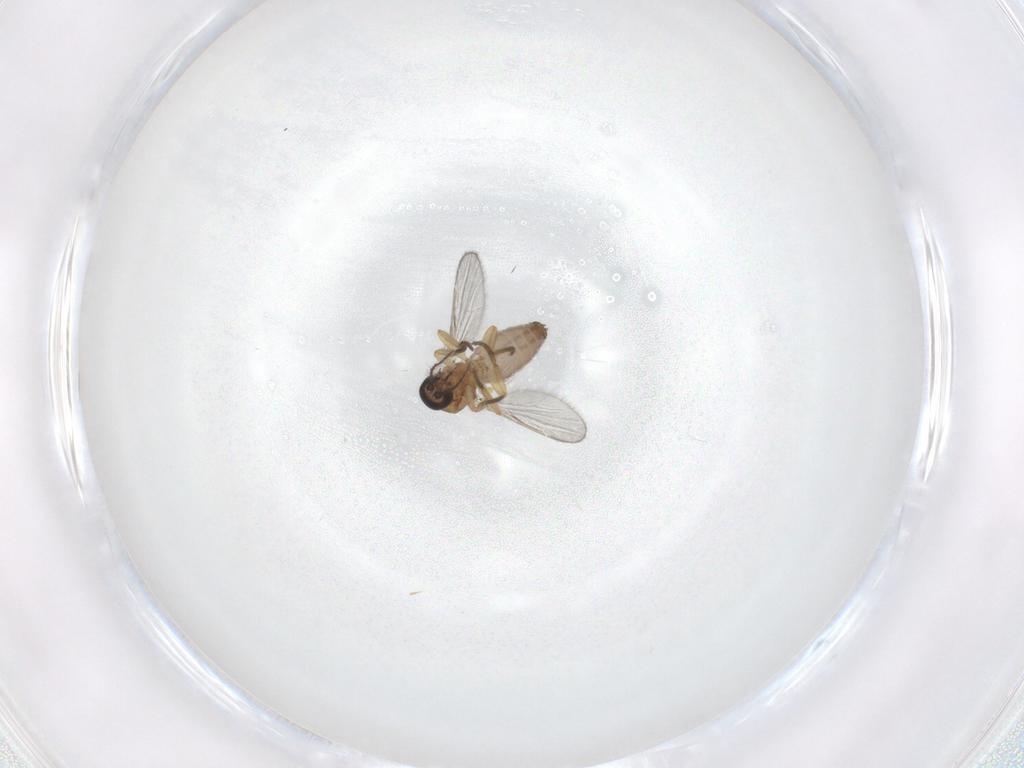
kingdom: Animalia
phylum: Arthropoda
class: Insecta
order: Diptera
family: Ceratopogonidae
